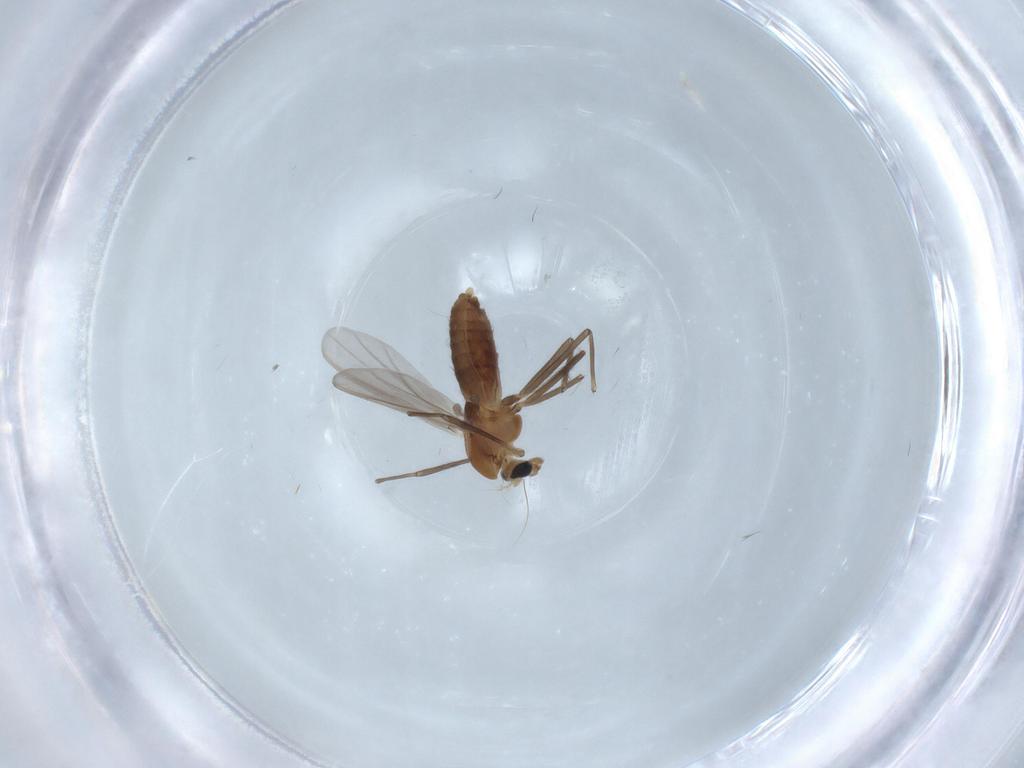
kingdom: Animalia
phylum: Arthropoda
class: Insecta
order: Diptera
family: Chironomidae
